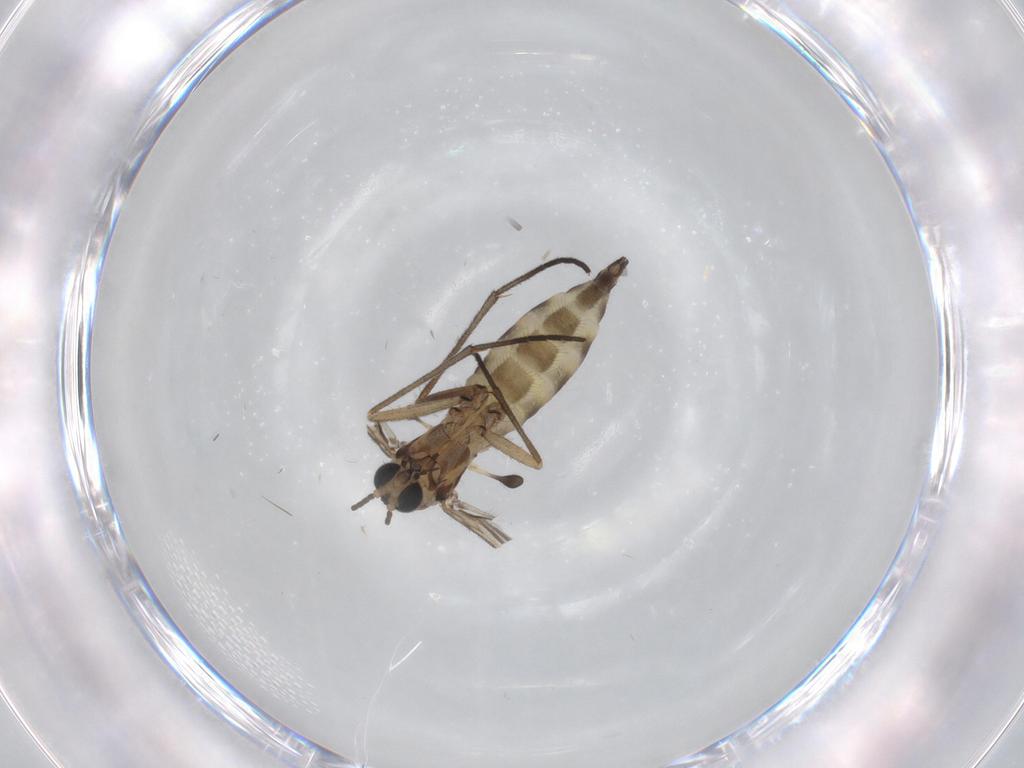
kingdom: Animalia
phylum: Arthropoda
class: Insecta
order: Diptera
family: Sciaridae
